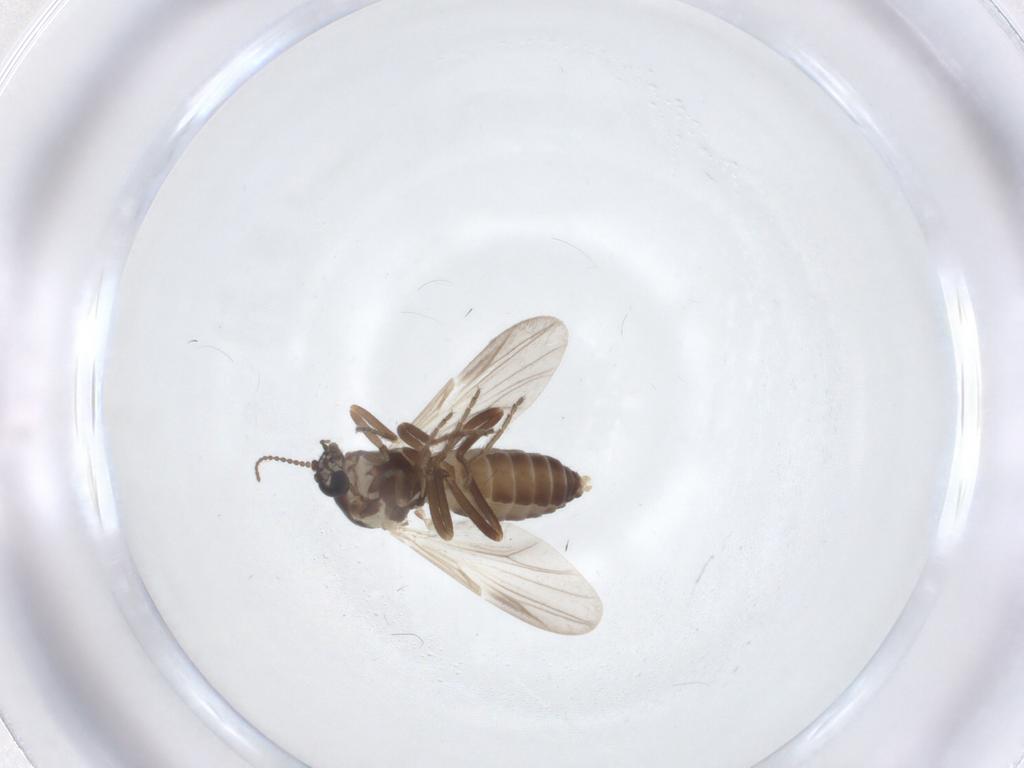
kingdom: Animalia
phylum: Arthropoda
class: Insecta
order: Diptera
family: Ceratopogonidae
